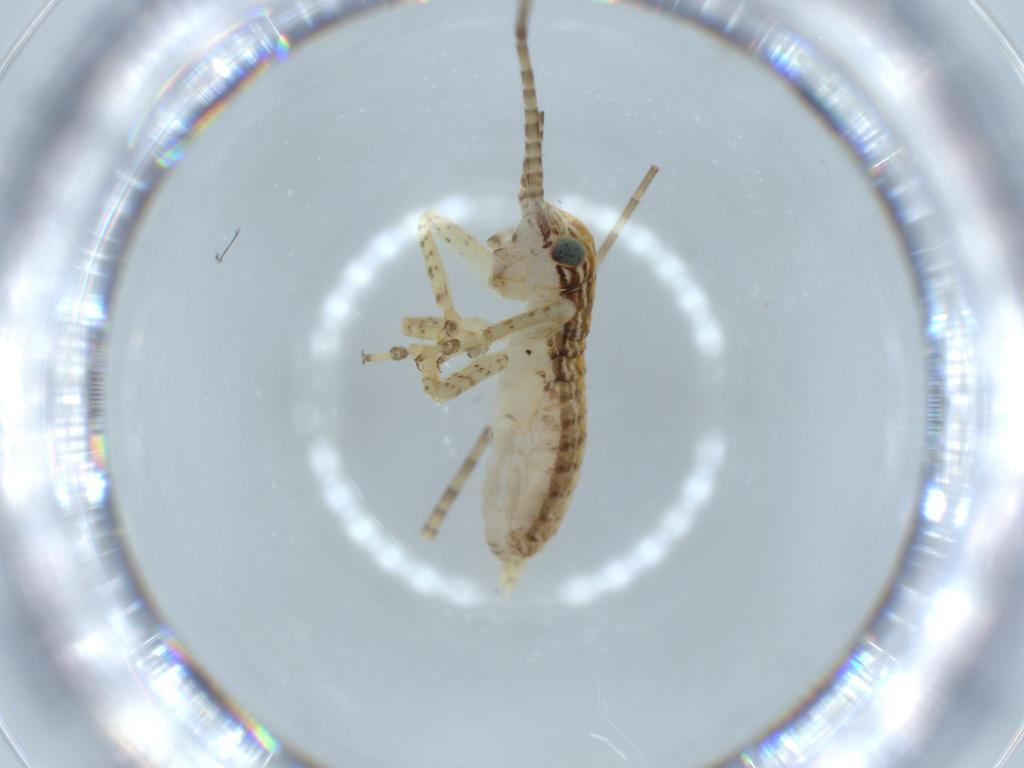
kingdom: Animalia
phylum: Arthropoda
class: Insecta
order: Orthoptera
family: Gryllidae
